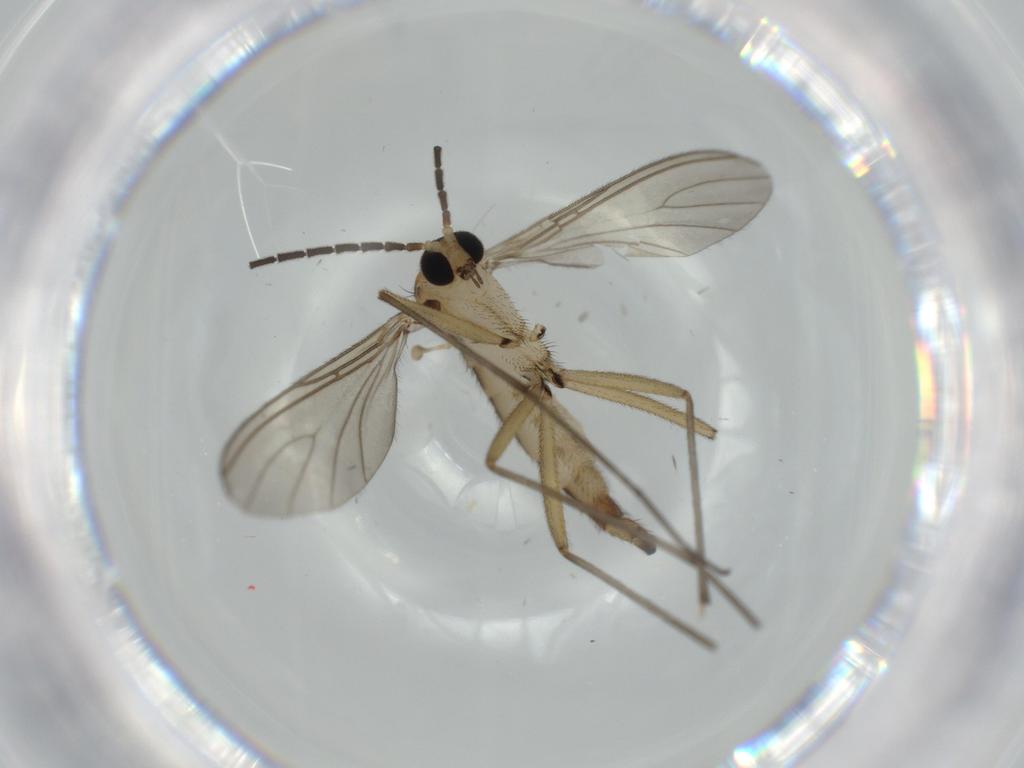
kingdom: Animalia
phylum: Arthropoda
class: Insecta
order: Diptera
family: Sciaridae
